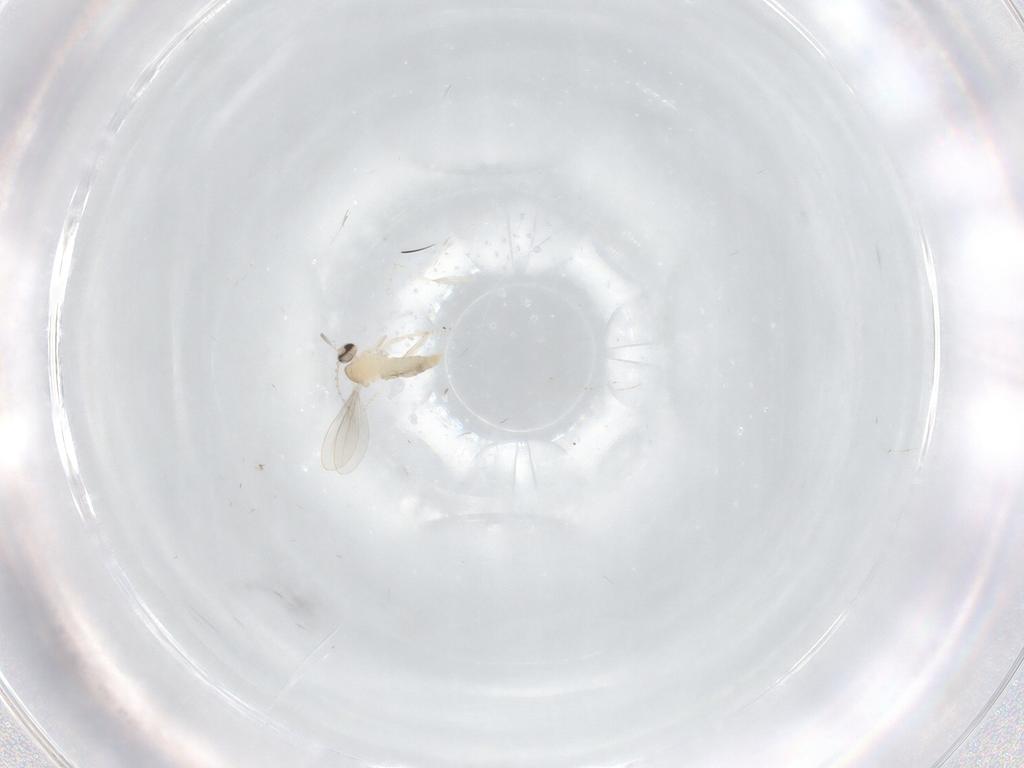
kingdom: Animalia
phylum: Arthropoda
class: Insecta
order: Diptera
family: Cecidomyiidae
